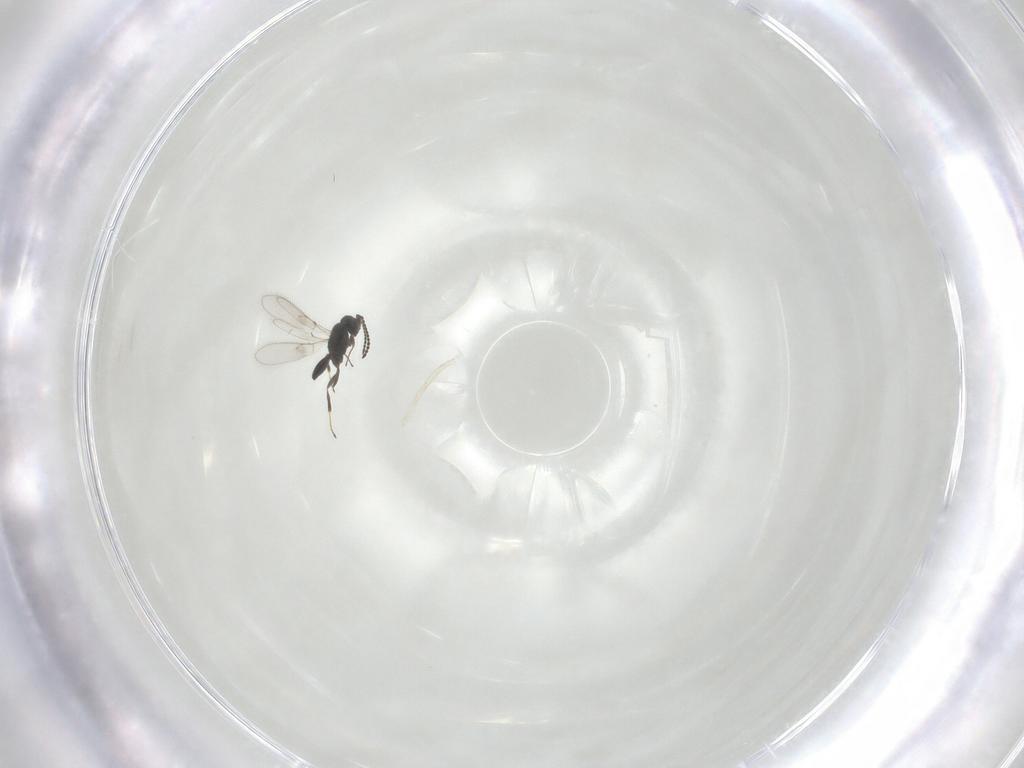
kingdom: Animalia
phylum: Arthropoda
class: Insecta
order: Hymenoptera
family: Scelionidae
